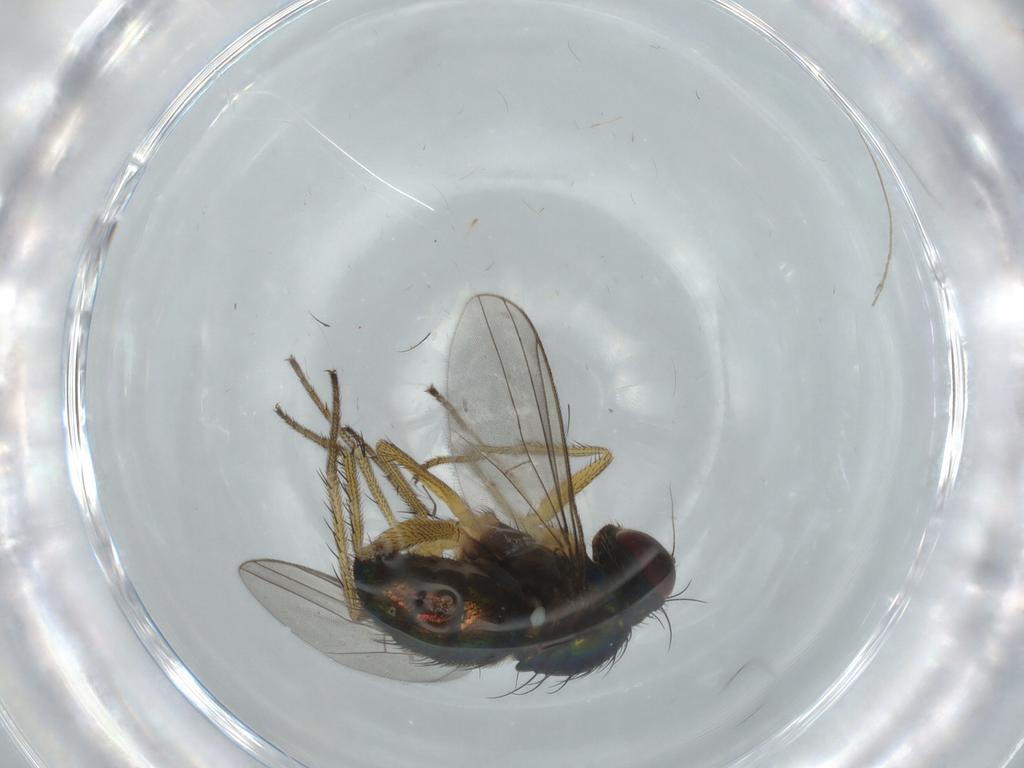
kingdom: Animalia
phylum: Arthropoda
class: Insecta
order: Diptera
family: Dolichopodidae
